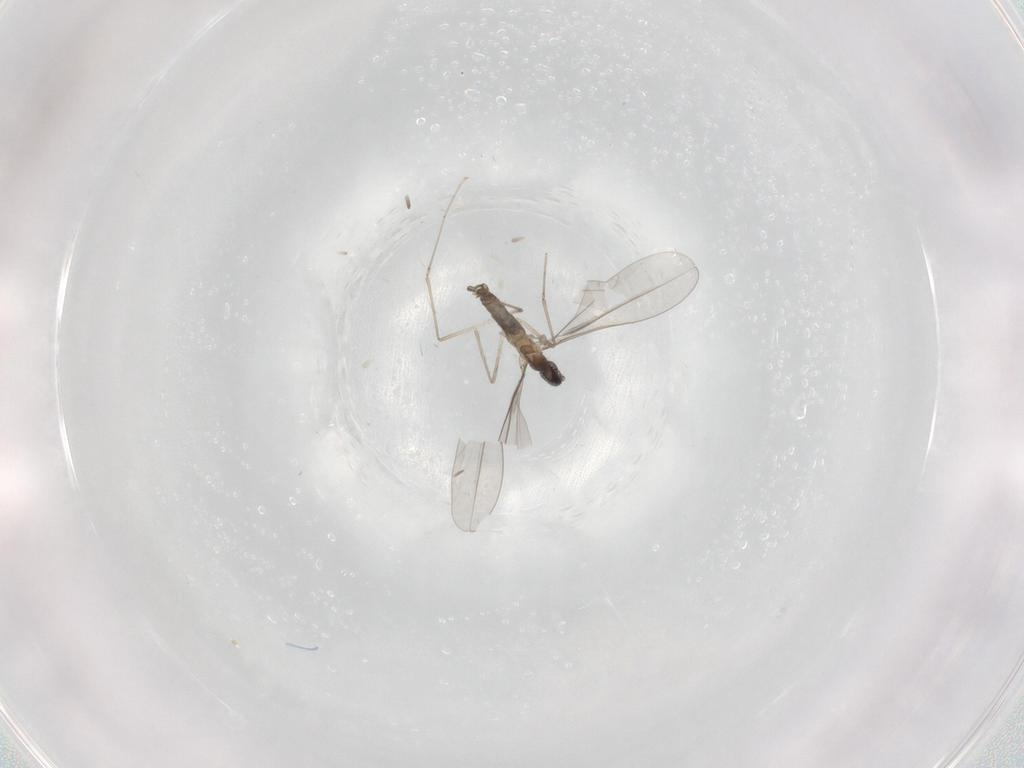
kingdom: Animalia
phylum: Arthropoda
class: Insecta
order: Diptera
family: Cecidomyiidae
